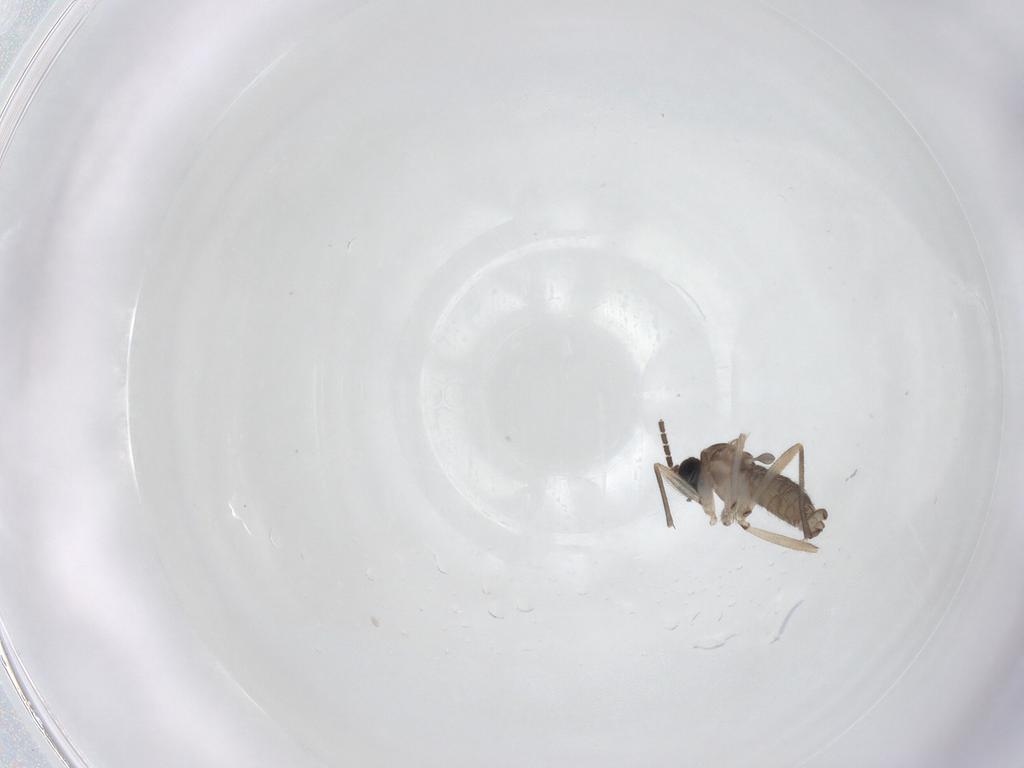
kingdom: Animalia
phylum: Arthropoda
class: Insecta
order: Diptera
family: Sciaridae
